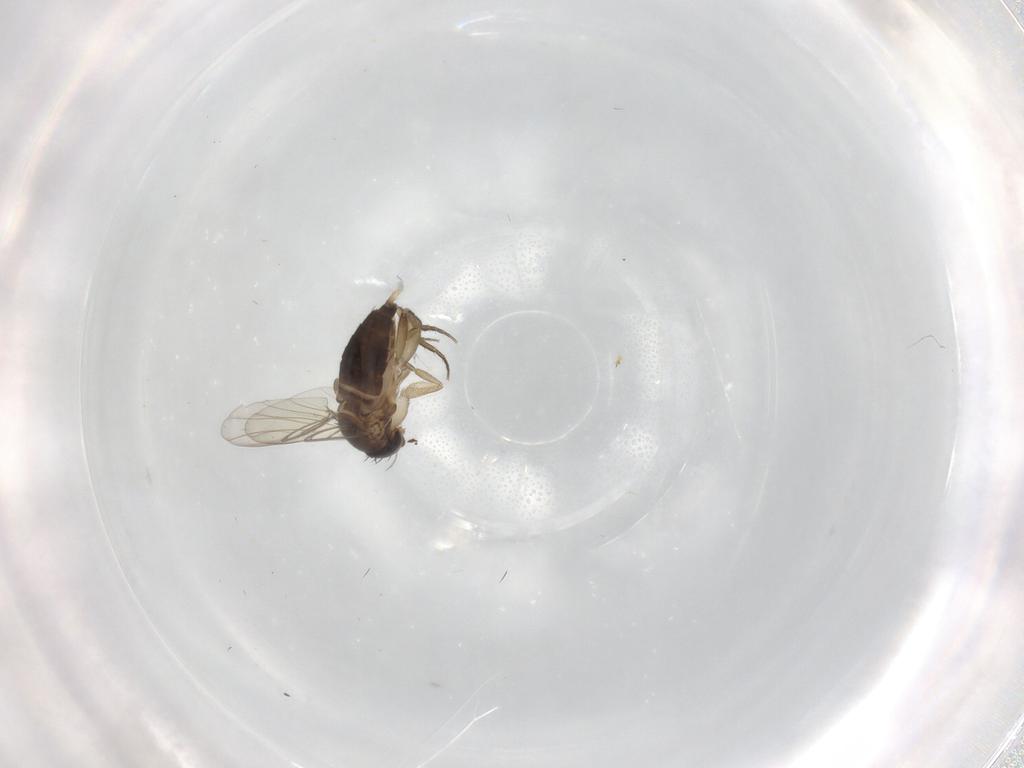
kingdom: Animalia
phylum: Arthropoda
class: Insecta
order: Diptera
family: Cecidomyiidae
